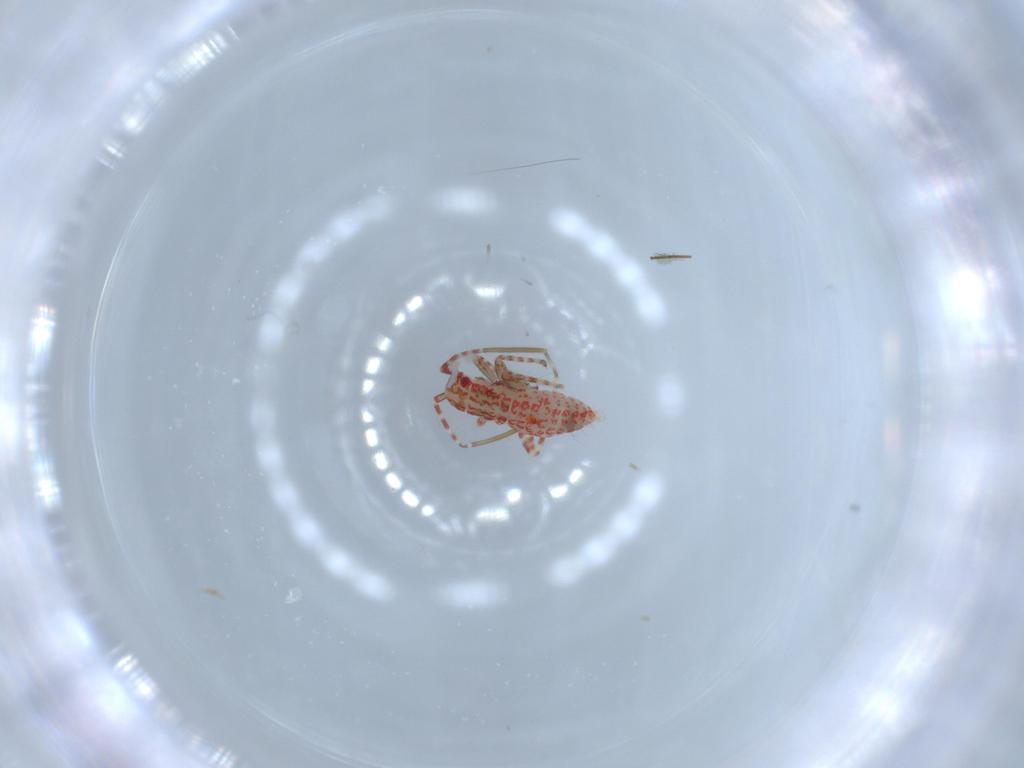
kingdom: Animalia
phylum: Arthropoda
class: Insecta
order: Hemiptera
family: Miridae
